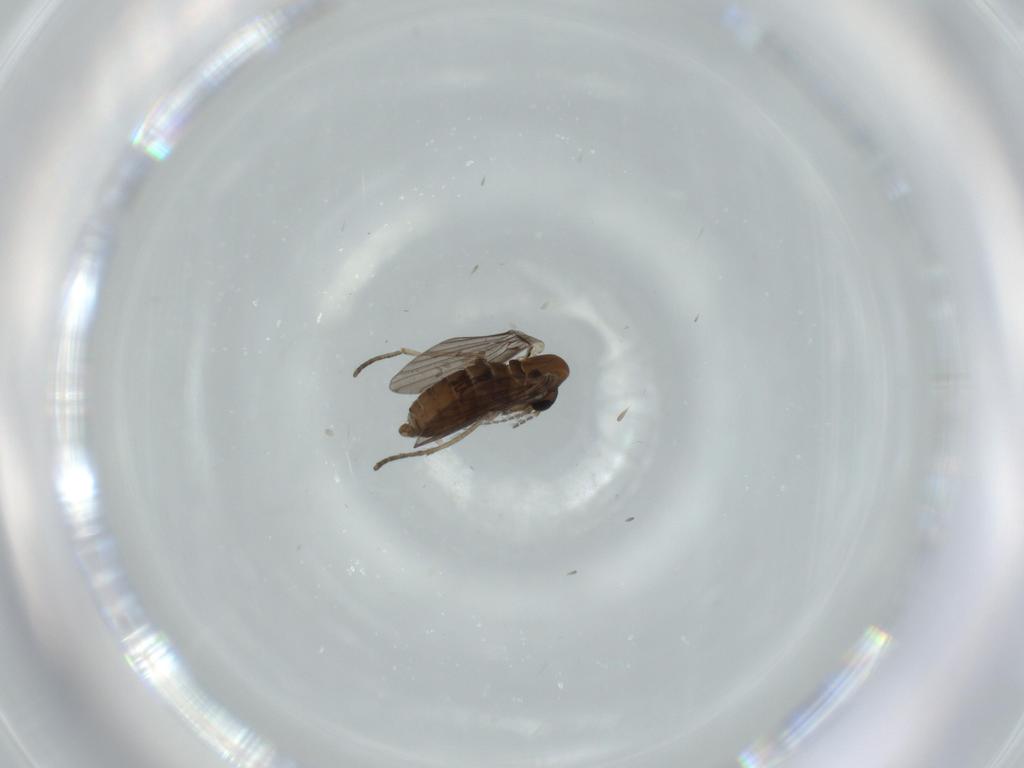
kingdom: Animalia
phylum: Arthropoda
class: Insecta
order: Diptera
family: Psychodidae
